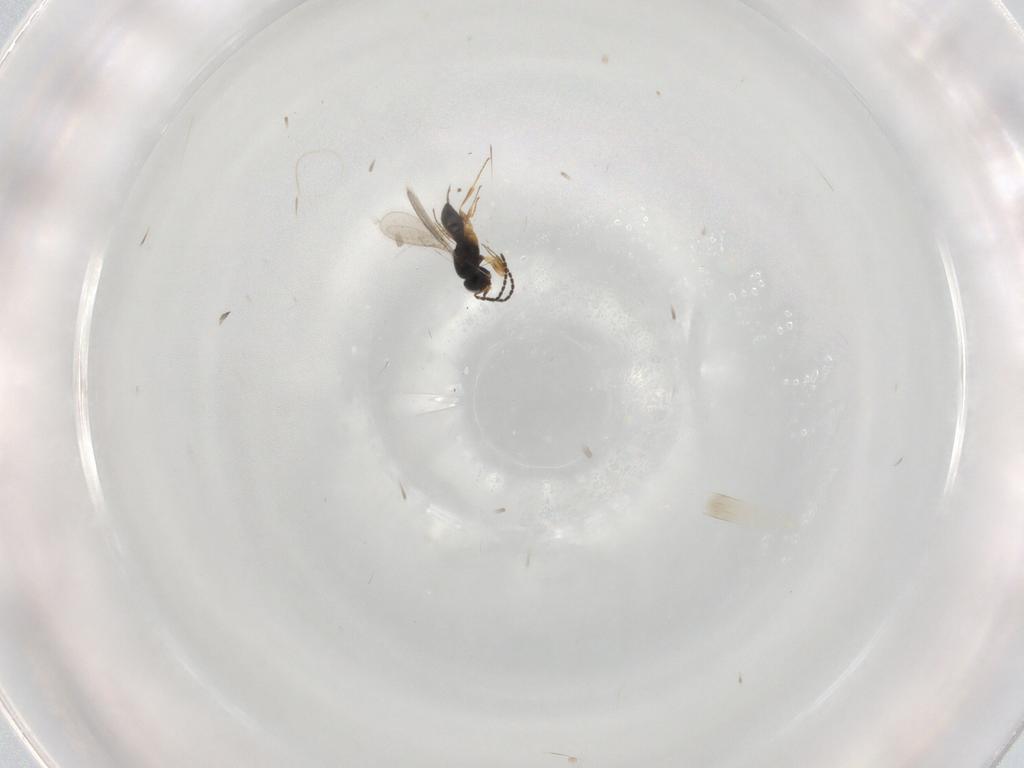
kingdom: Animalia
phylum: Arthropoda
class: Insecta
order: Hymenoptera
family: Scelionidae
